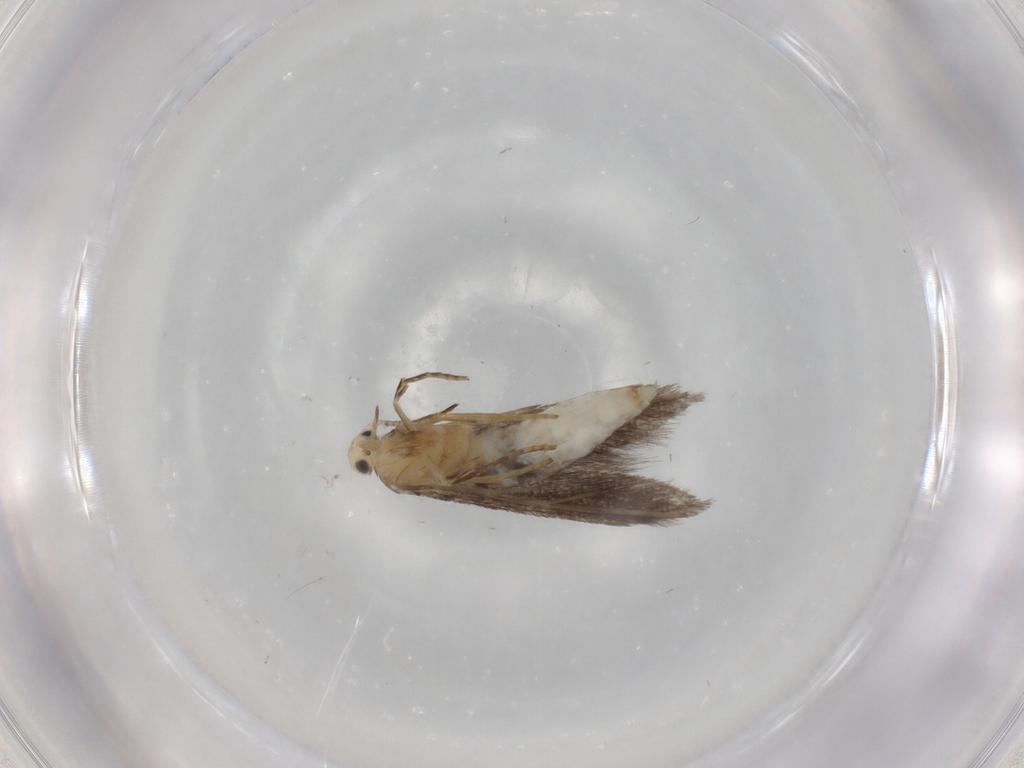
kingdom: Animalia
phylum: Arthropoda
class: Insecta
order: Lepidoptera
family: Schreckensteiniidae
